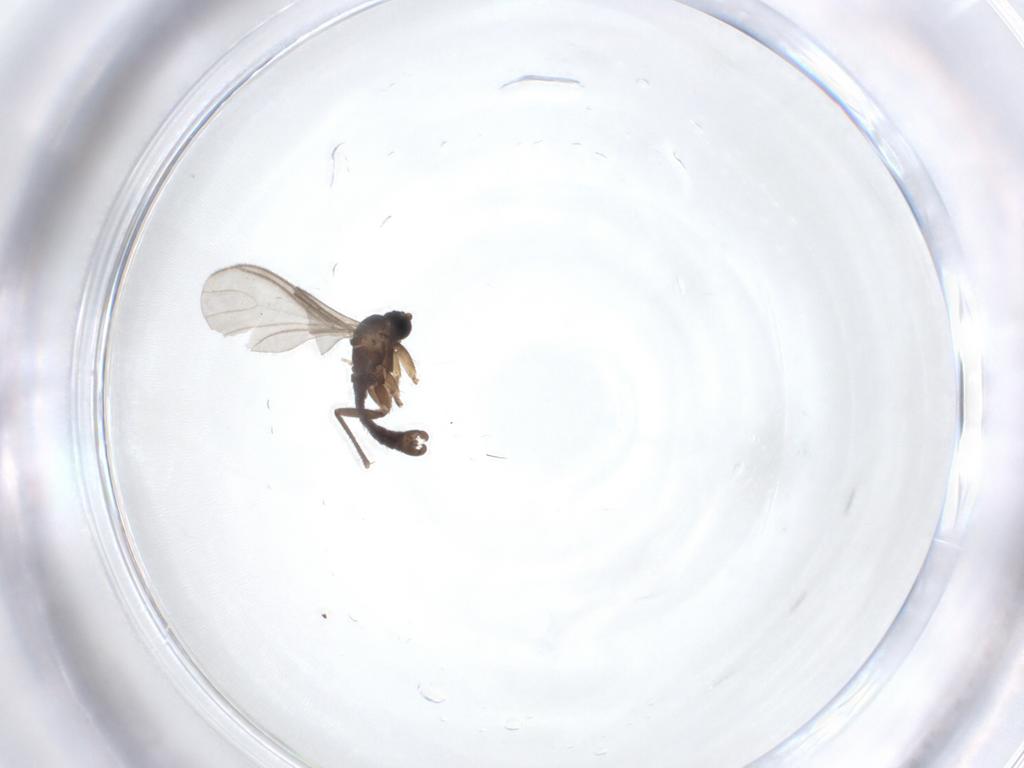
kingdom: Animalia
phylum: Arthropoda
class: Insecta
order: Diptera
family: Sciaridae
